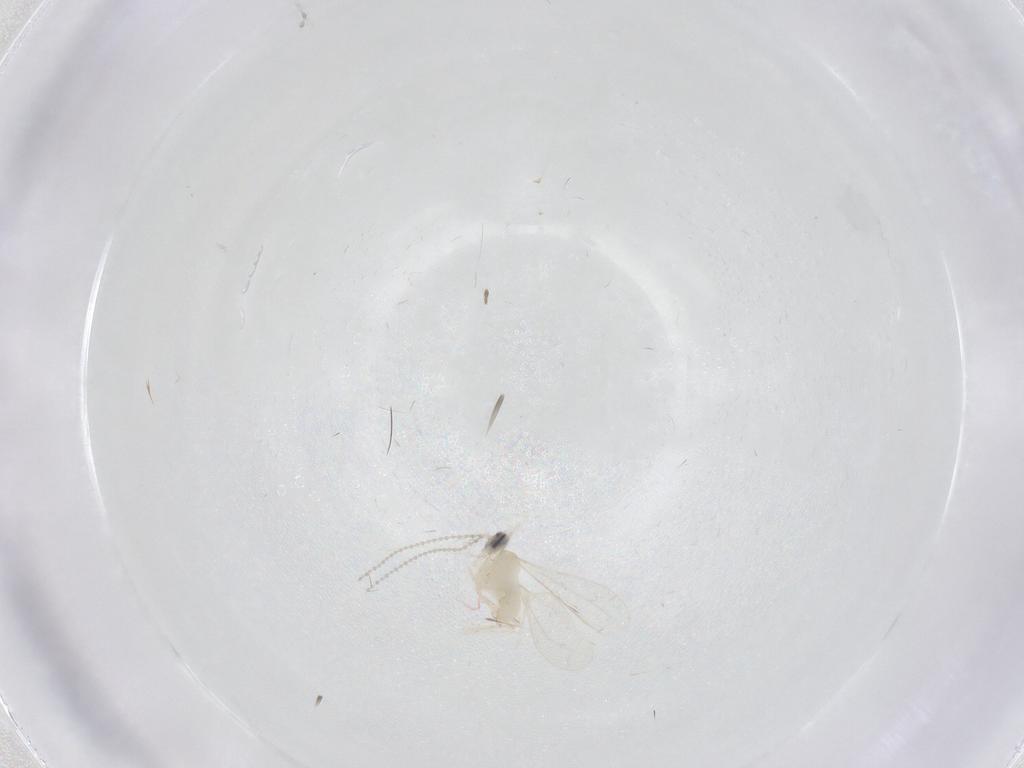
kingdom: Animalia
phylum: Arthropoda
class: Insecta
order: Diptera
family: Cecidomyiidae
